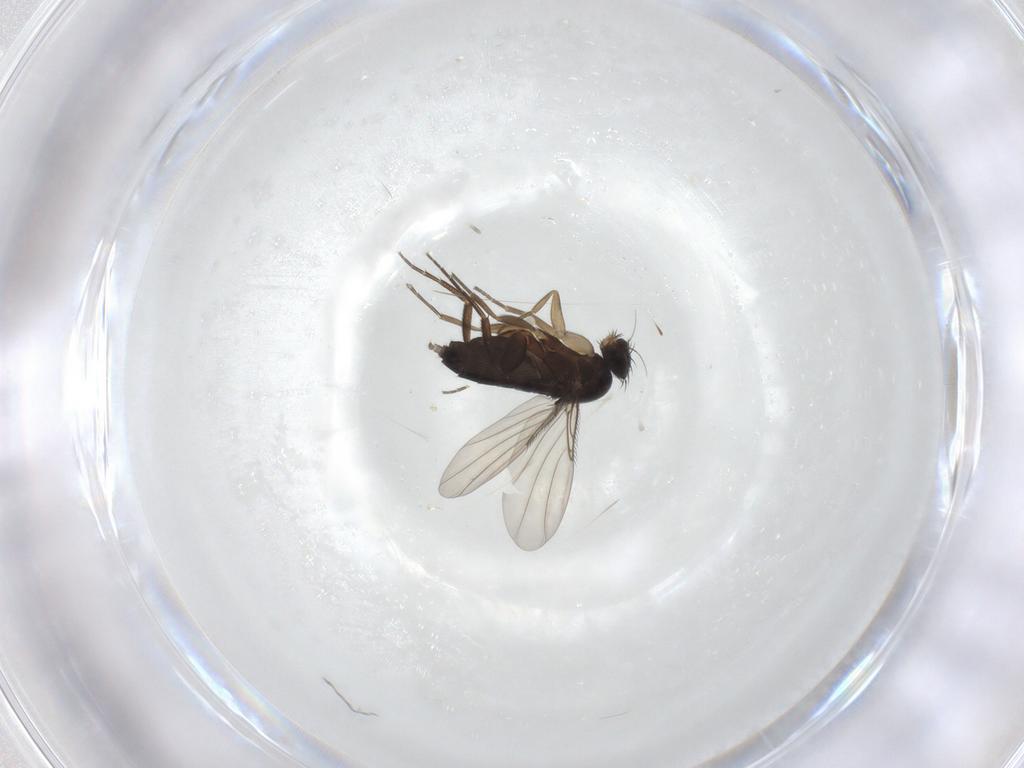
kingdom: Animalia
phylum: Arthropoda
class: Insecta
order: Diptera
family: Phoridae
